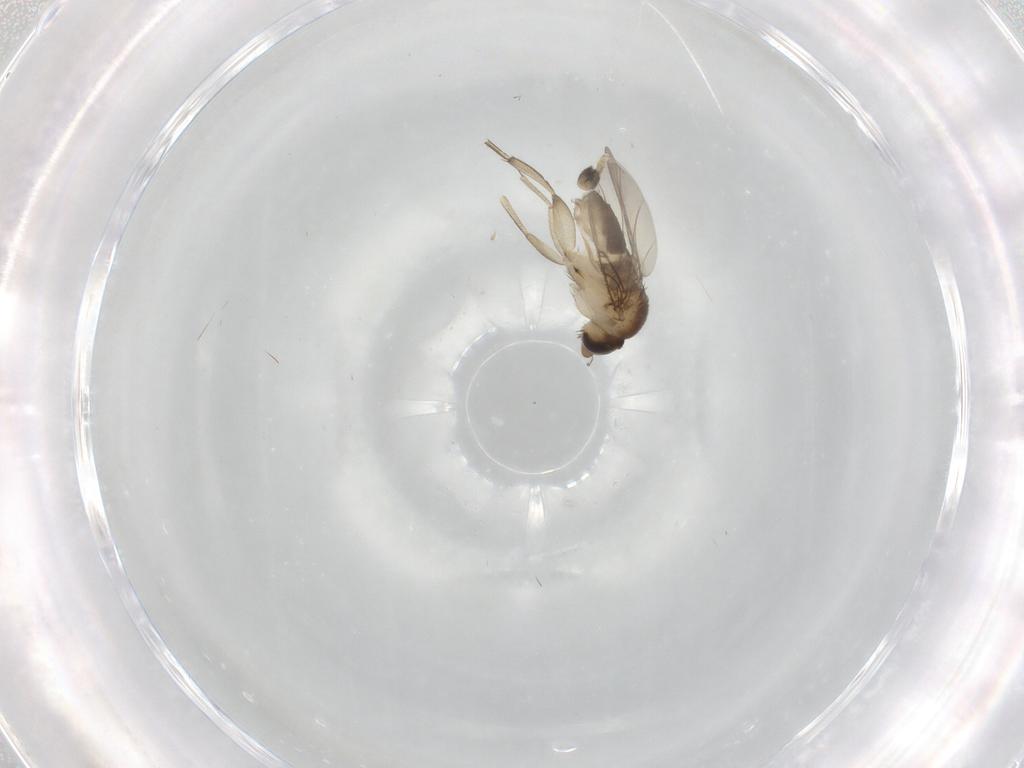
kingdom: Animalia
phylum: Arthropoda
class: Insecta
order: Diptera
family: Phoridae
